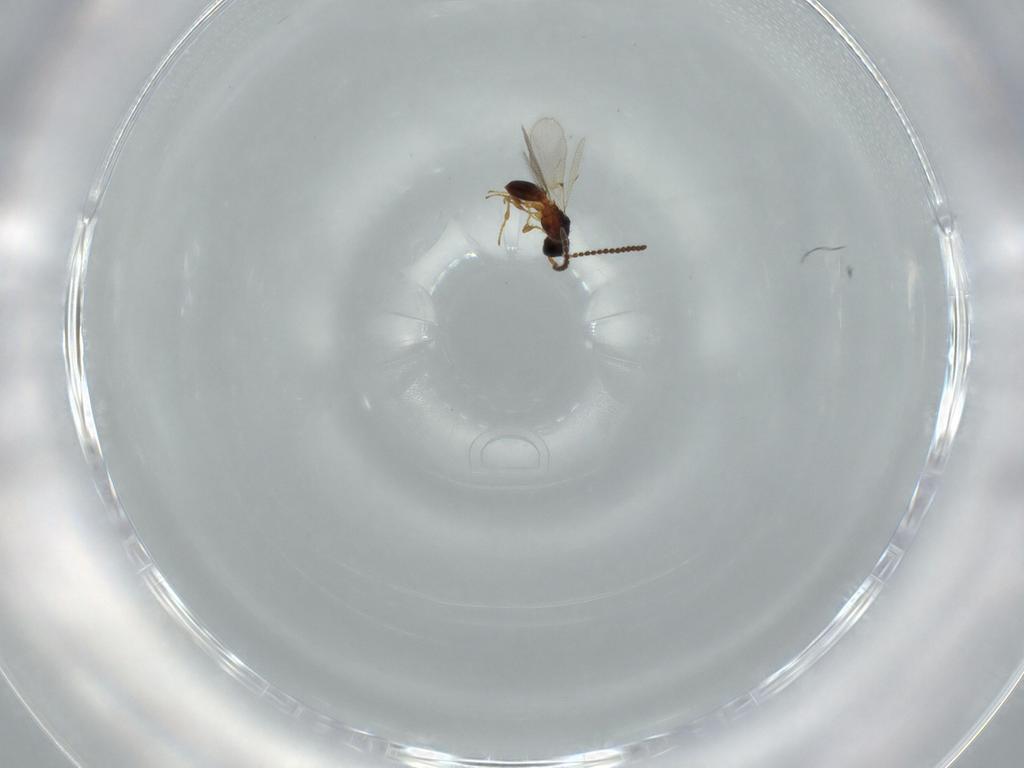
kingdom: Animalia
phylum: Arthropoda
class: Insecta
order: Hymenoptera
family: Diapriidae
